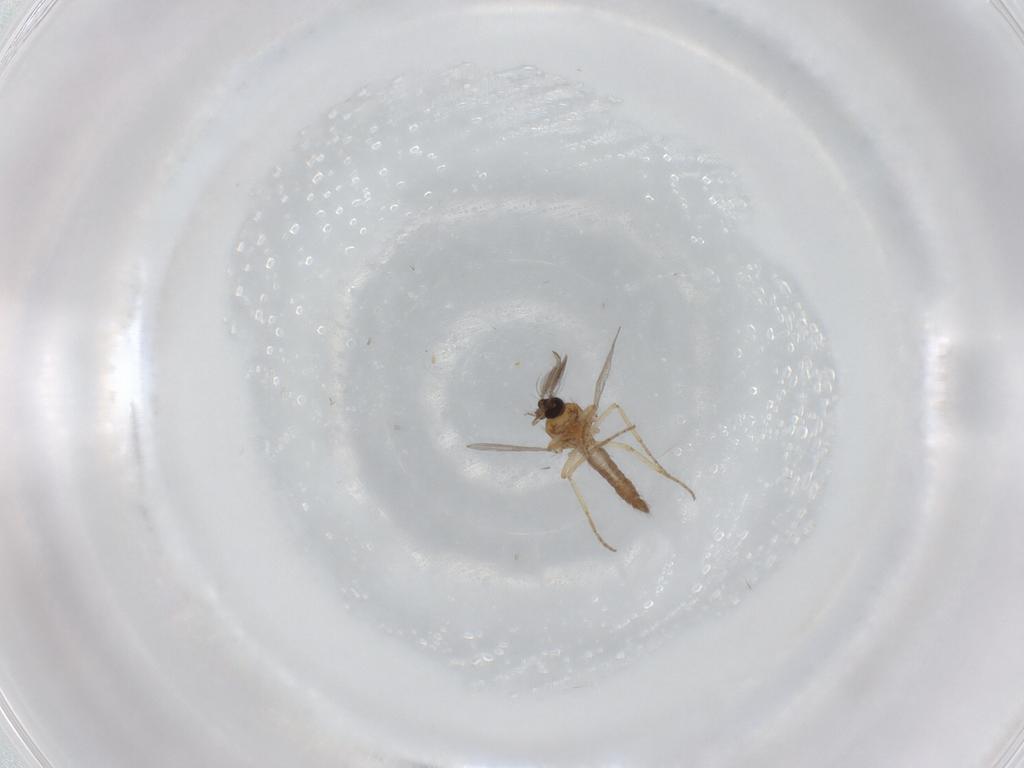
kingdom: Animalia
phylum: Arthropoda
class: Insecta
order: Diptera
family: Ceratopogonidae
